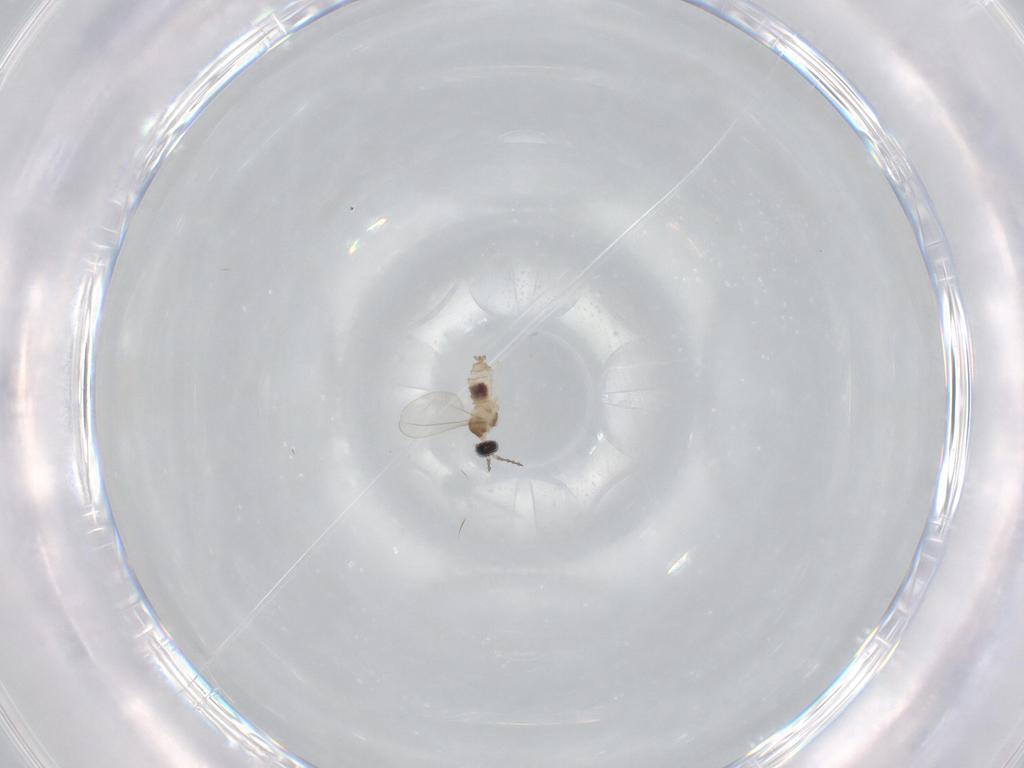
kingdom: Animalia
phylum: Arthropoda
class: Insecta
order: Diptera
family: Cecidomyiidae
